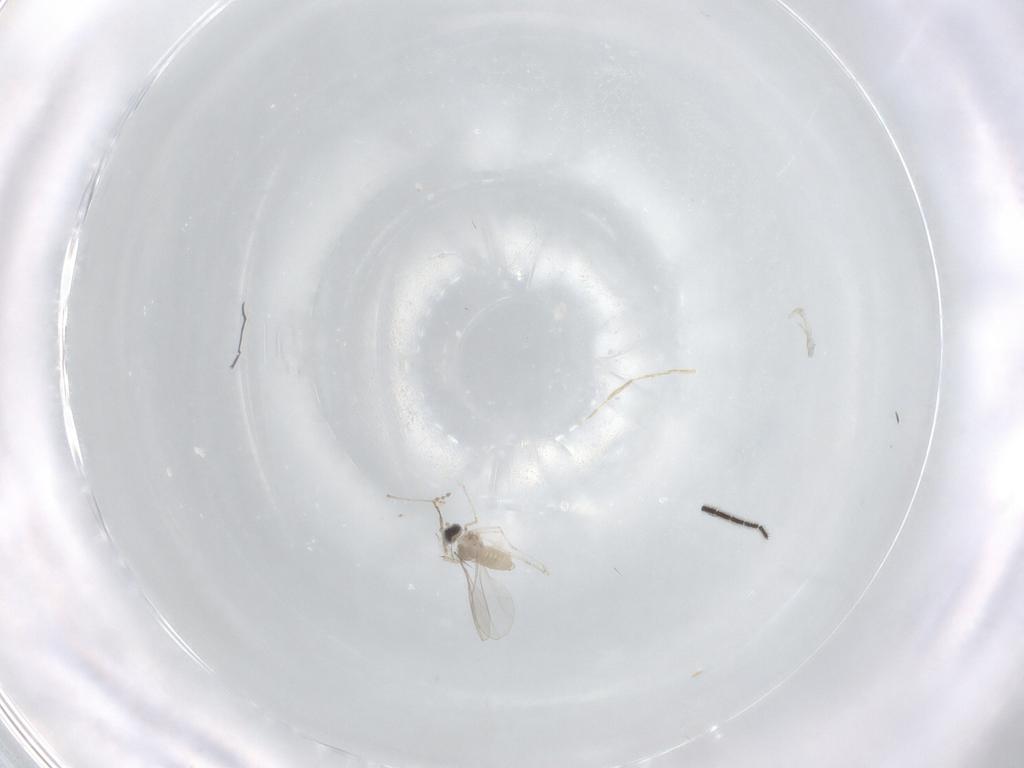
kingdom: Animalia
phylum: Arthropoda
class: Insecta
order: Diptera
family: Chironomidae
